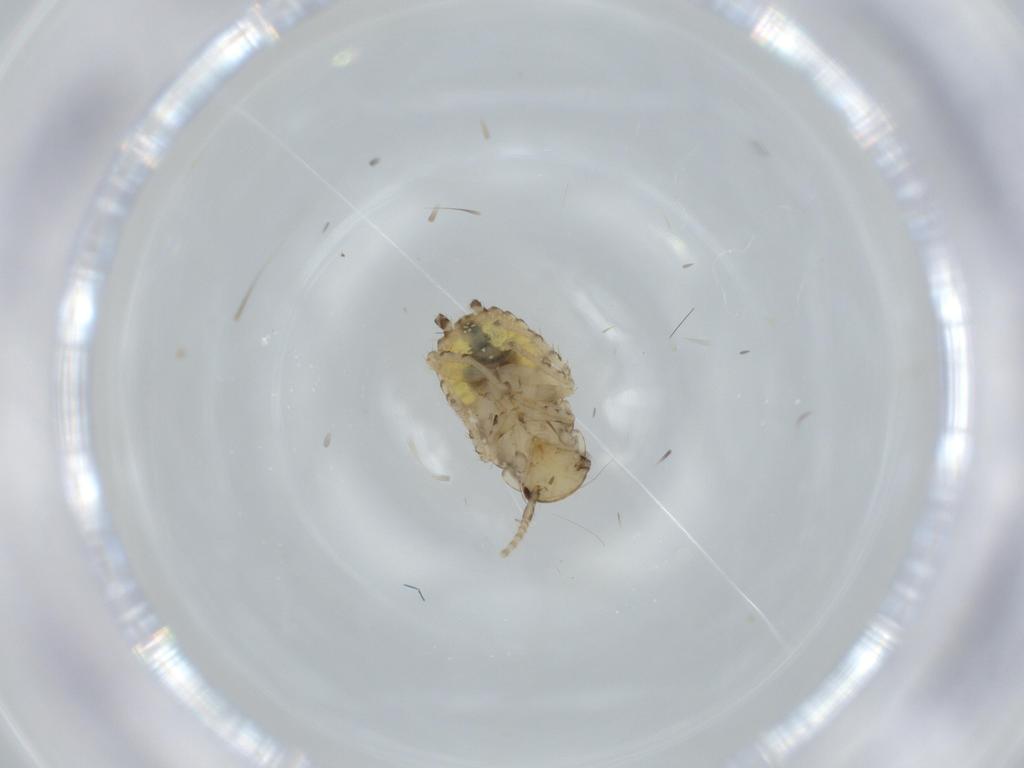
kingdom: Animalia
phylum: Arthropoda
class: Insecta
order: Blattodea
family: Ectobiidae
